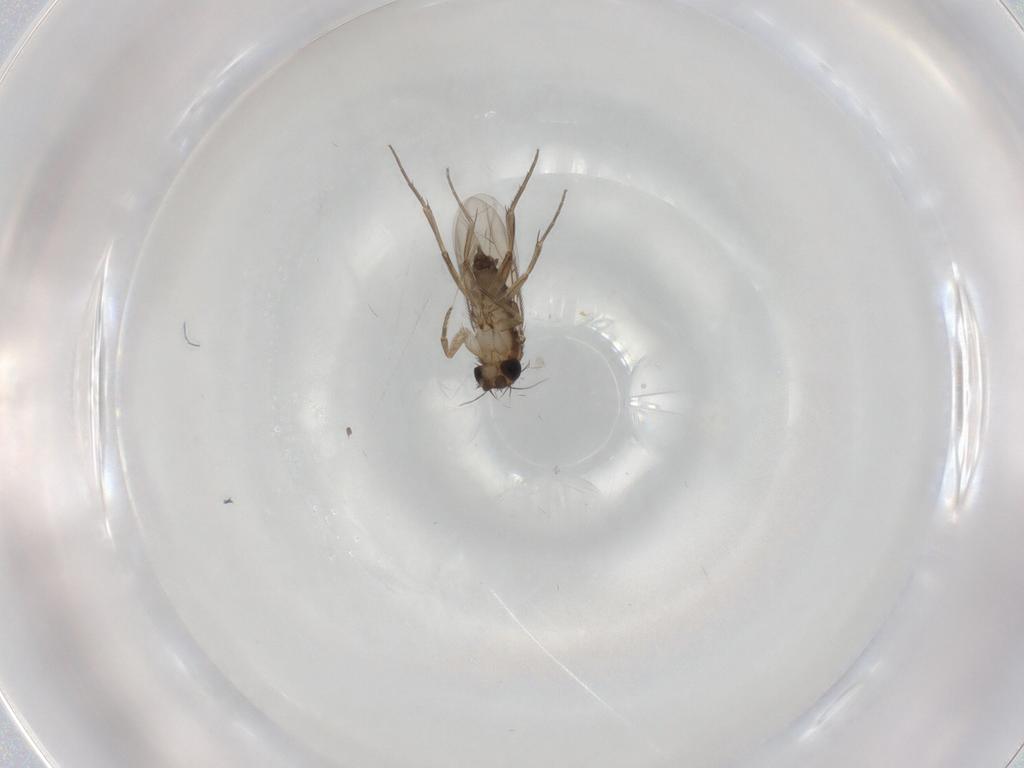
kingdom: Animalia
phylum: Arthropoda
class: Insecta
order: Diptera
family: Phoridae
